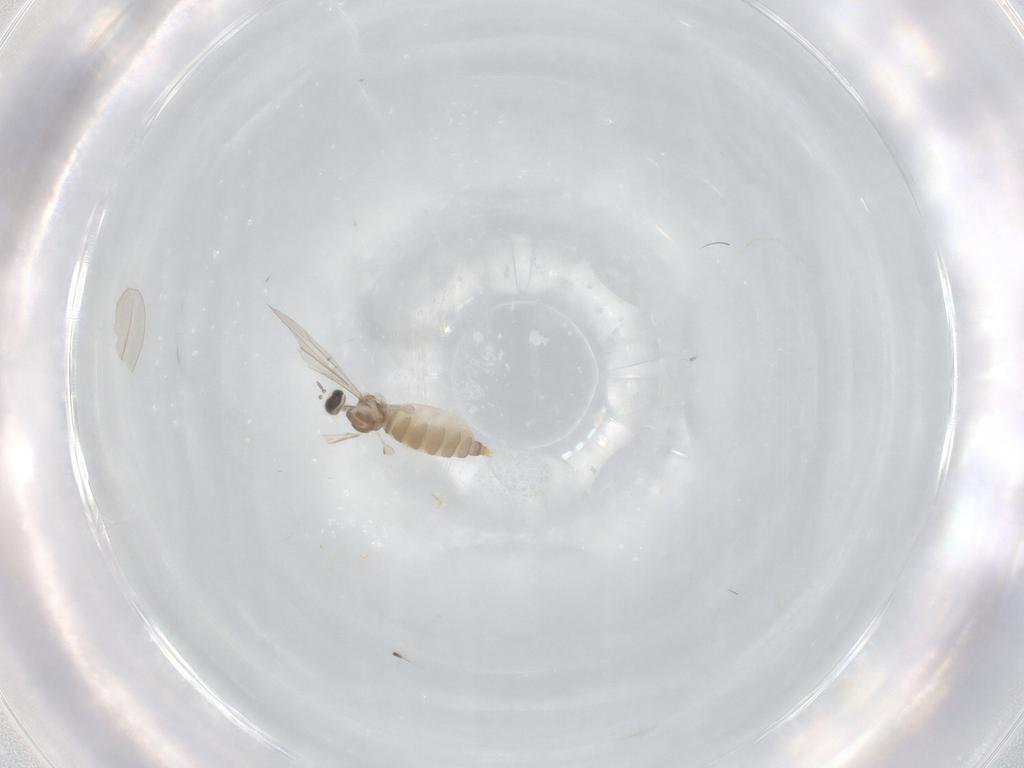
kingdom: Animalia
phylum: Arthropoda
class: Insecta
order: Diptera
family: Cecidomyiidae
